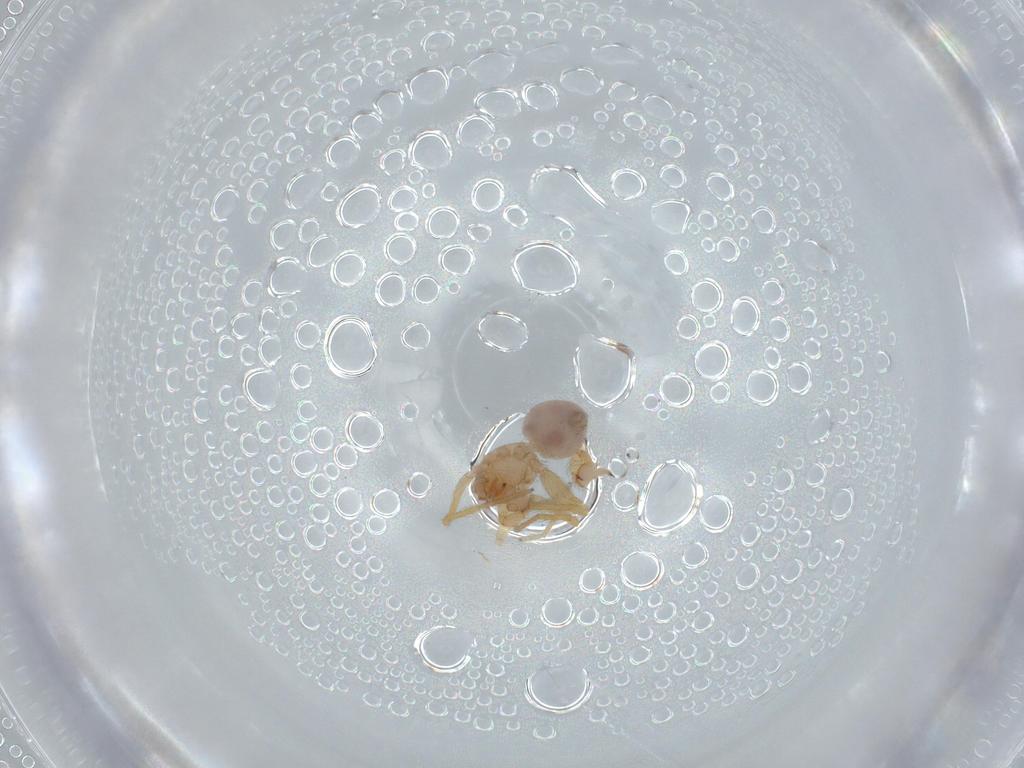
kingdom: Animalia
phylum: Arthropoda
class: Arachnida
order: Araneae
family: Oonopidae
